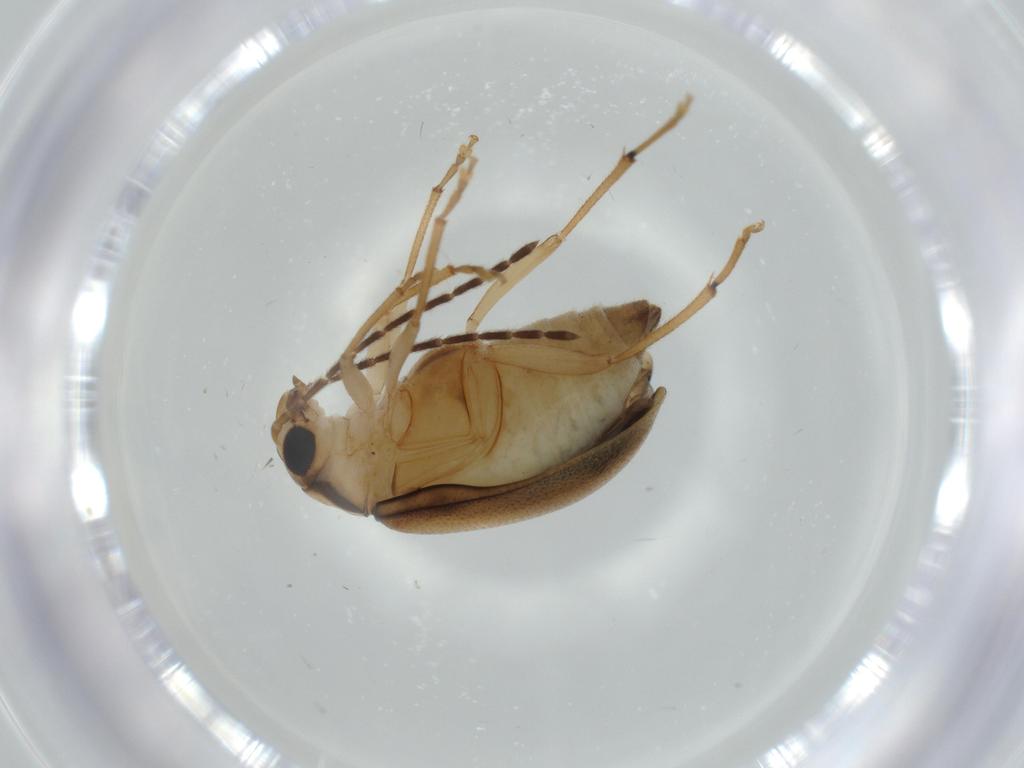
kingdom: Animalia
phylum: Arthropoda
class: Insecta
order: Coleoptera
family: Chrysomelidae
